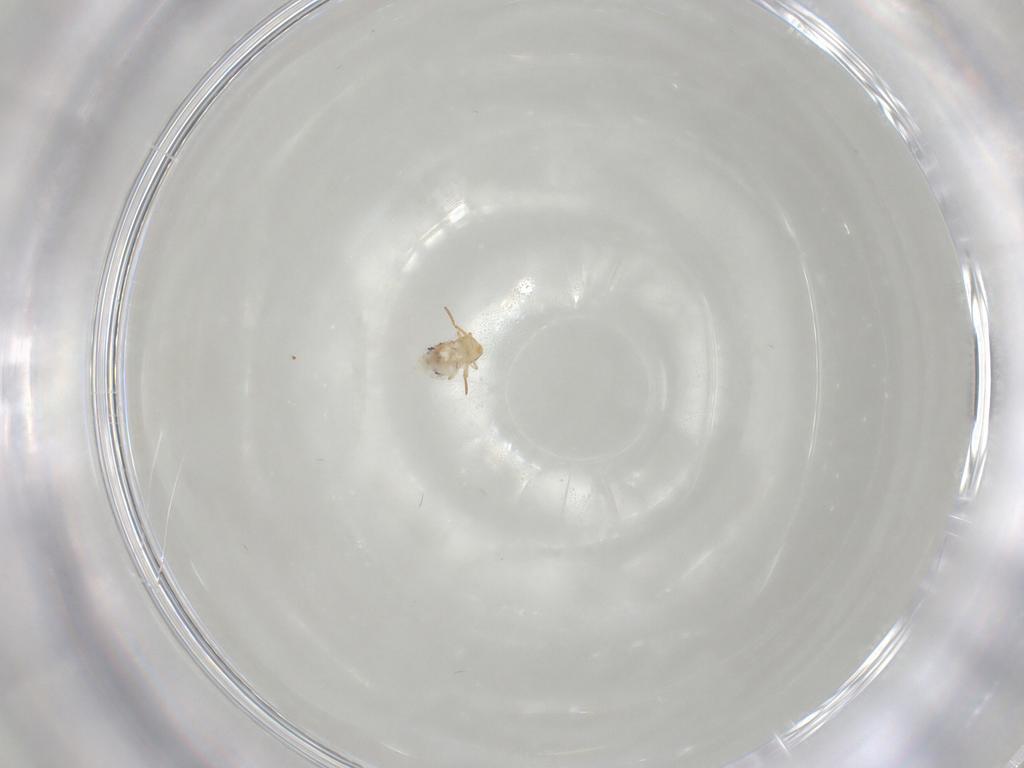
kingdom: Animalia
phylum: Arthropoda
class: Collembola
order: Symphypleona
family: Bourletiellidae
